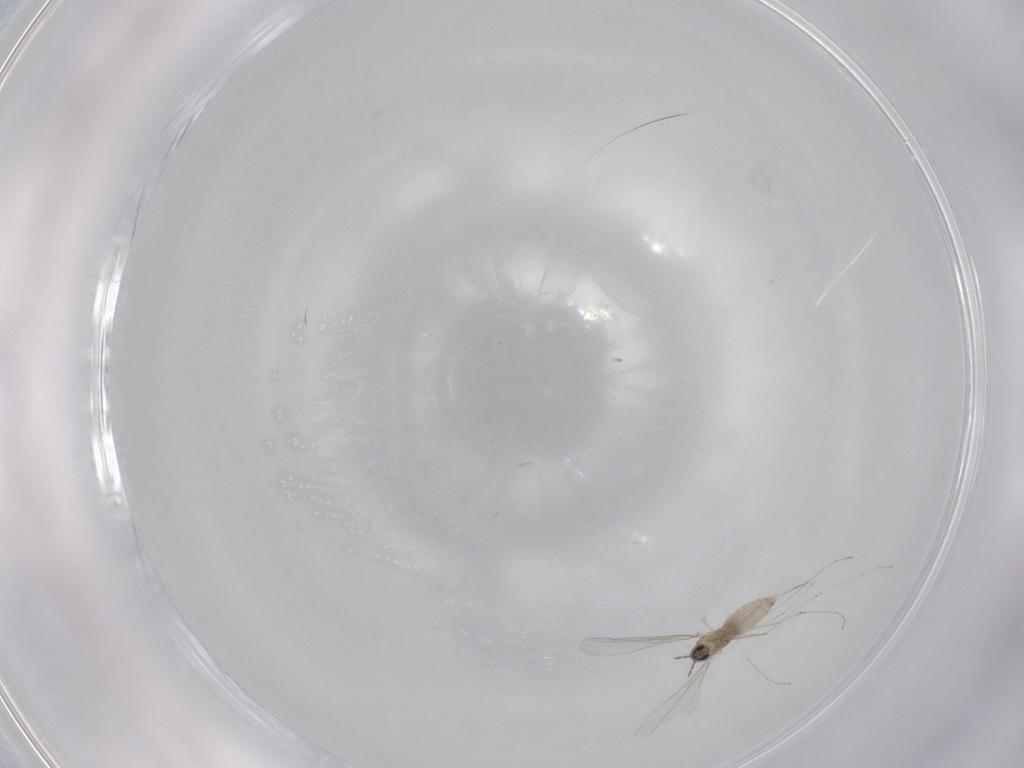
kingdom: Animalia
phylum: Arthropoda
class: Insecta
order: Diptera
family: Cecidomyiidae
